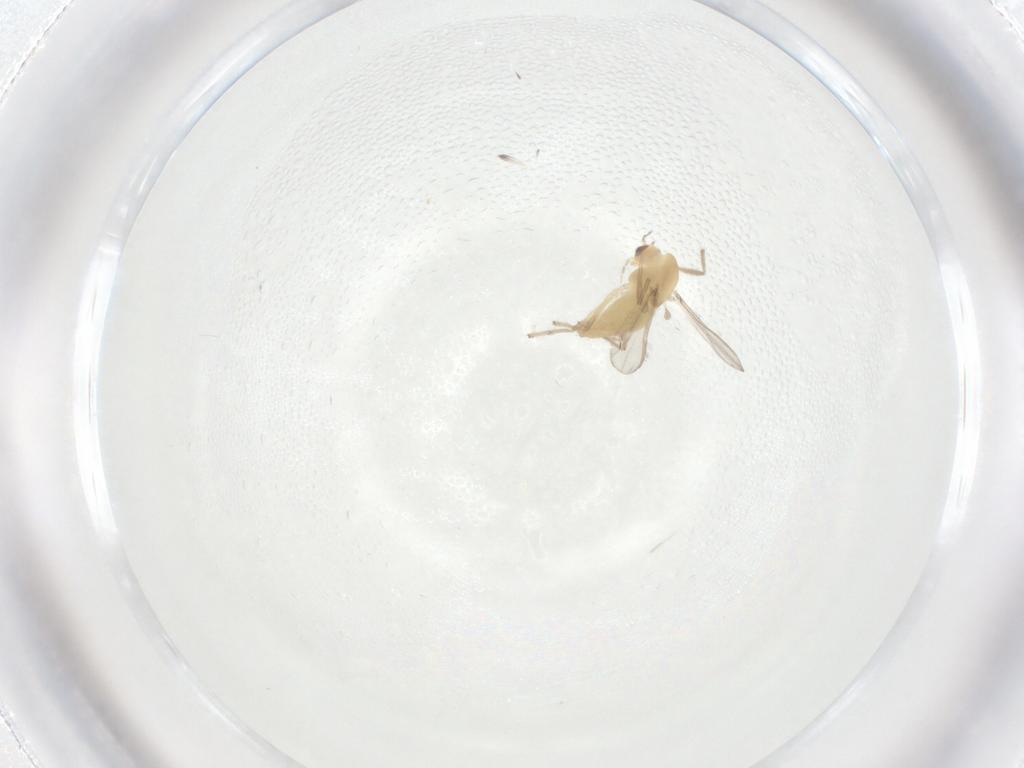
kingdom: Animalia
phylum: Arthropoda
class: Insecta
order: Diptera
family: Chironomidae
